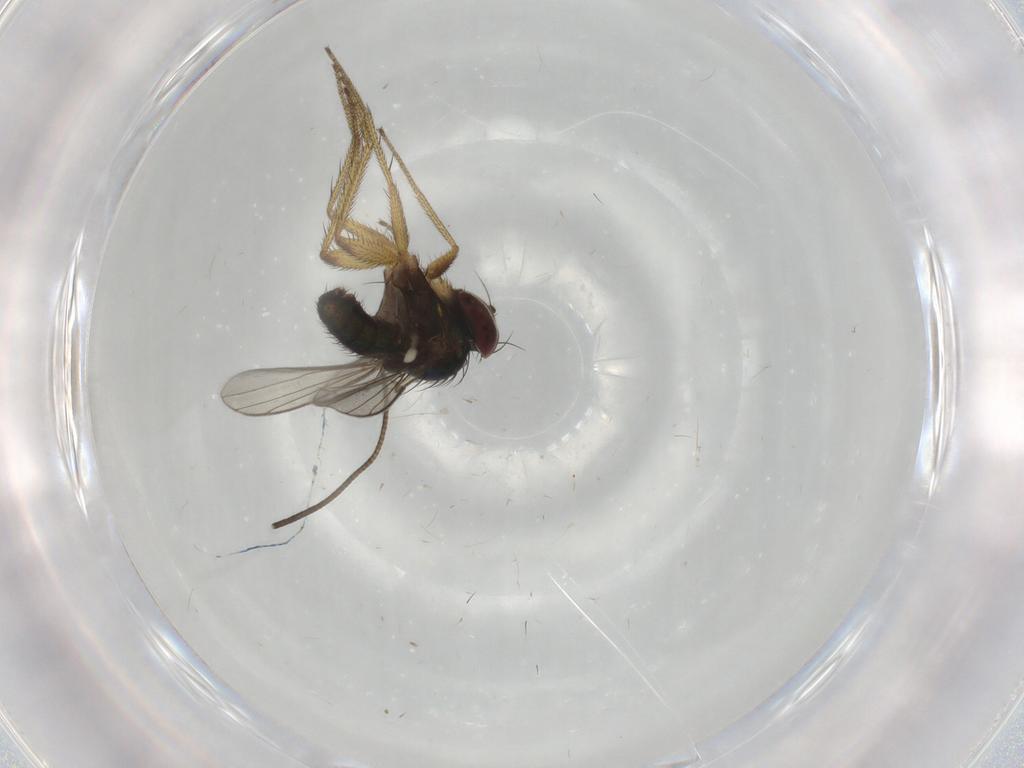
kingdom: Animalia
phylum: Arthropoda
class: Insecta
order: Diptera
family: Dolichopodidae
